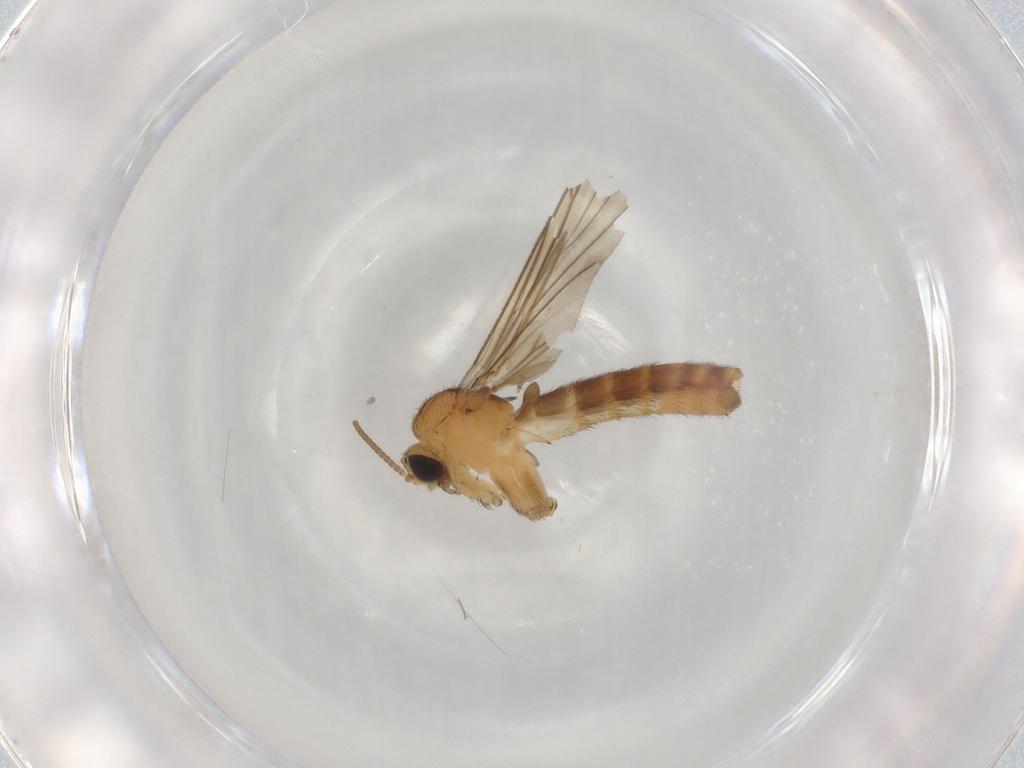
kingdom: Animalia
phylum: Arthropoda
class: Insecta
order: Diptera
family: Keroplatidae
